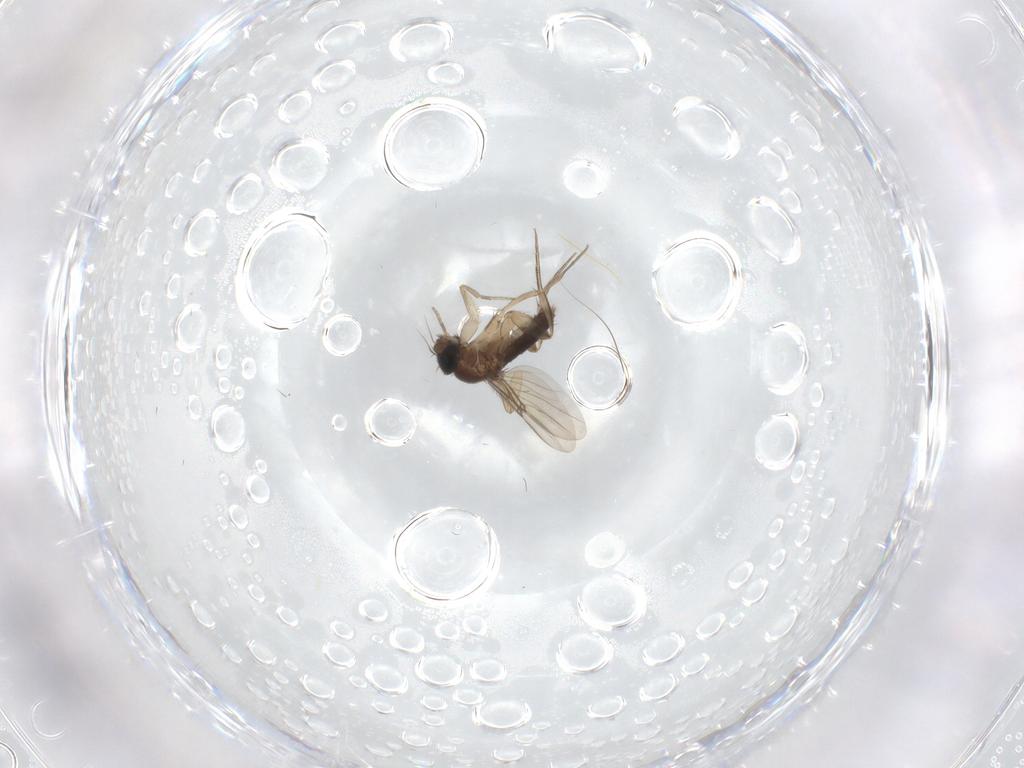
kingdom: Animalia
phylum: Arthropoda
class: Insecta
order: Diptera
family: Phoridae
